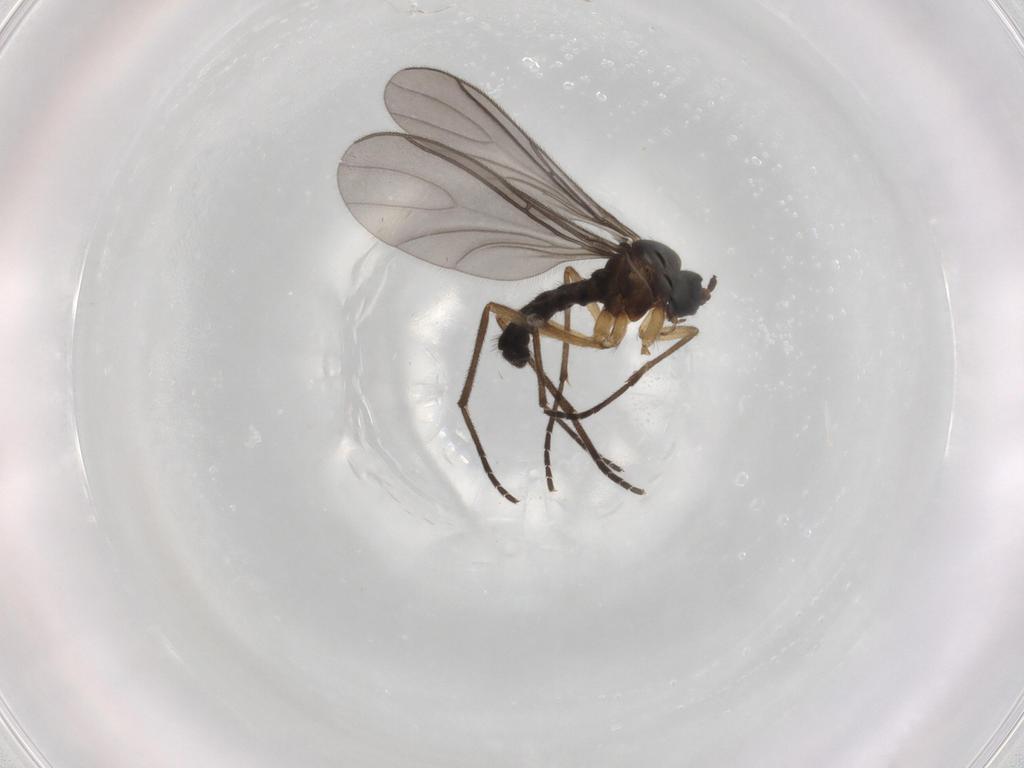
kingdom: Animalia
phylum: Arthropoda
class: Insecta
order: Diptera
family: Sciaridae
